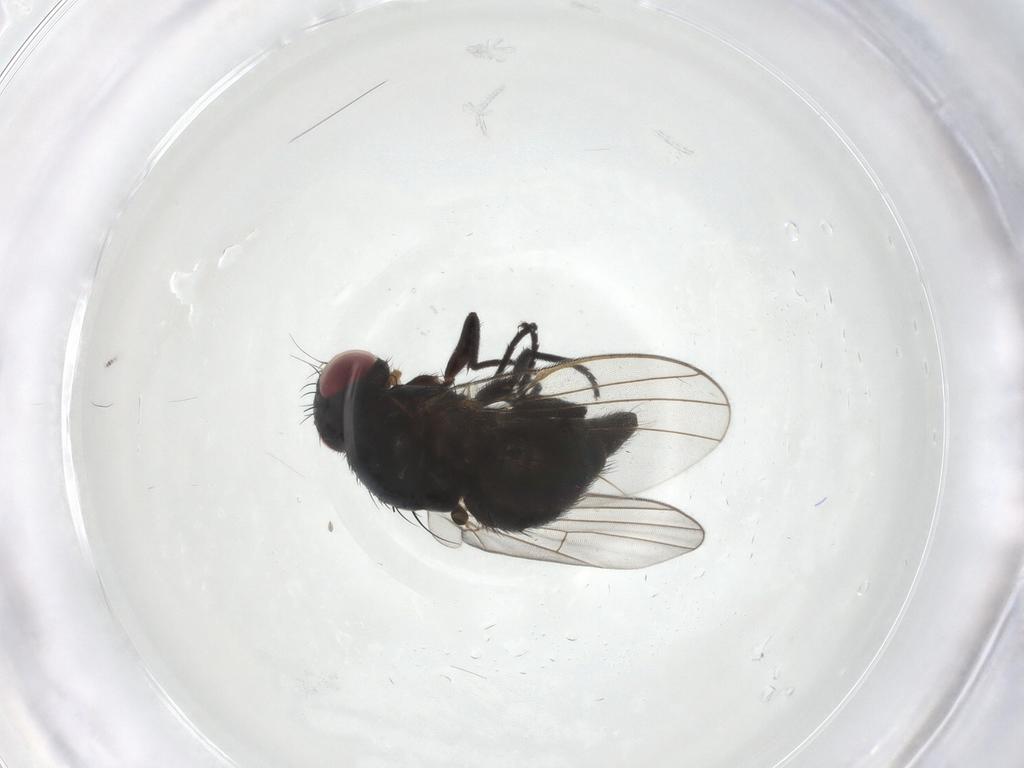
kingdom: Animalia
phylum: Arthropoda
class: Insecta
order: Diptera
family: Agromyzidae
